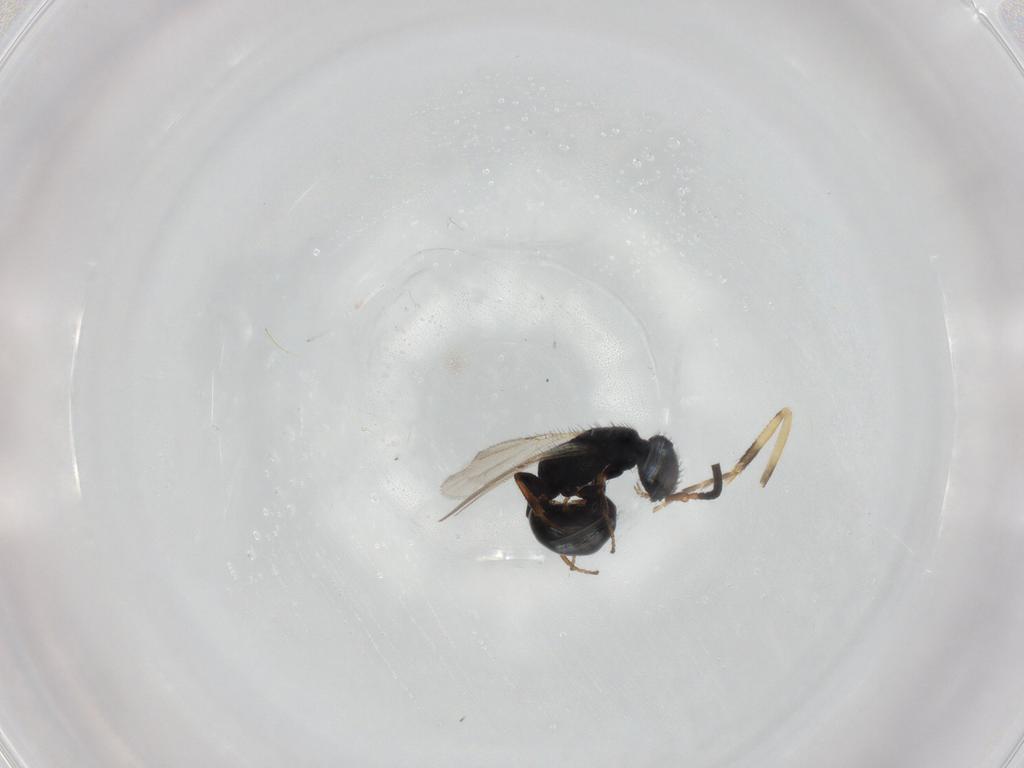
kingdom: Animalia
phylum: Arthropoda
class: Insecta
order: Hymenoptera
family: Bethylidae
